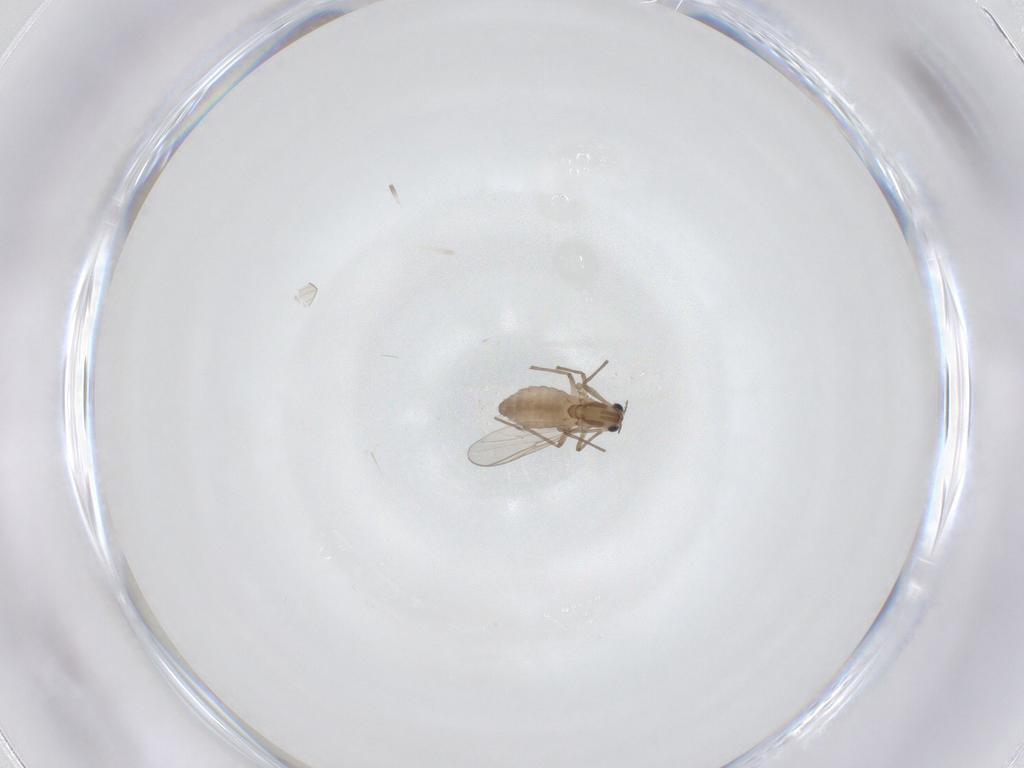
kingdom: Animalia
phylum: Arthropoda
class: Insecta
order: Diptera
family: Chironomidae
